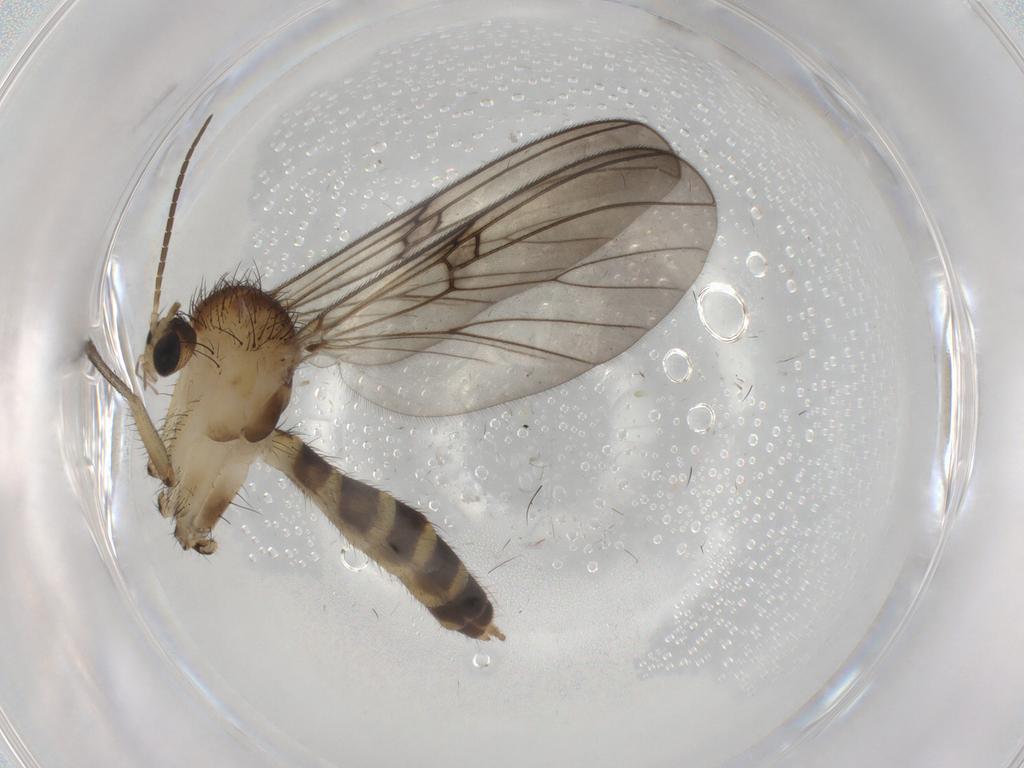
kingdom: Animalia
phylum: Arthropoda
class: Insecta
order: Diptera
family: Mycetophilidae
